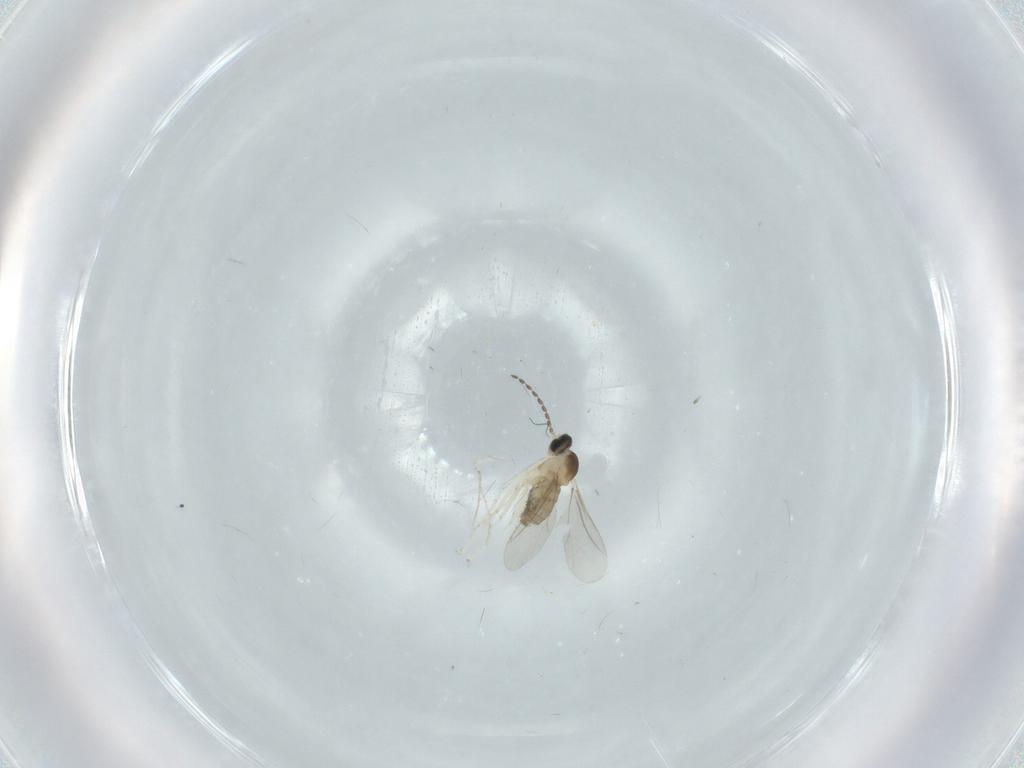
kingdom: Animalia
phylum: Arthropoda
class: Insecta
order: Diptera
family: Cecidomyiidae
